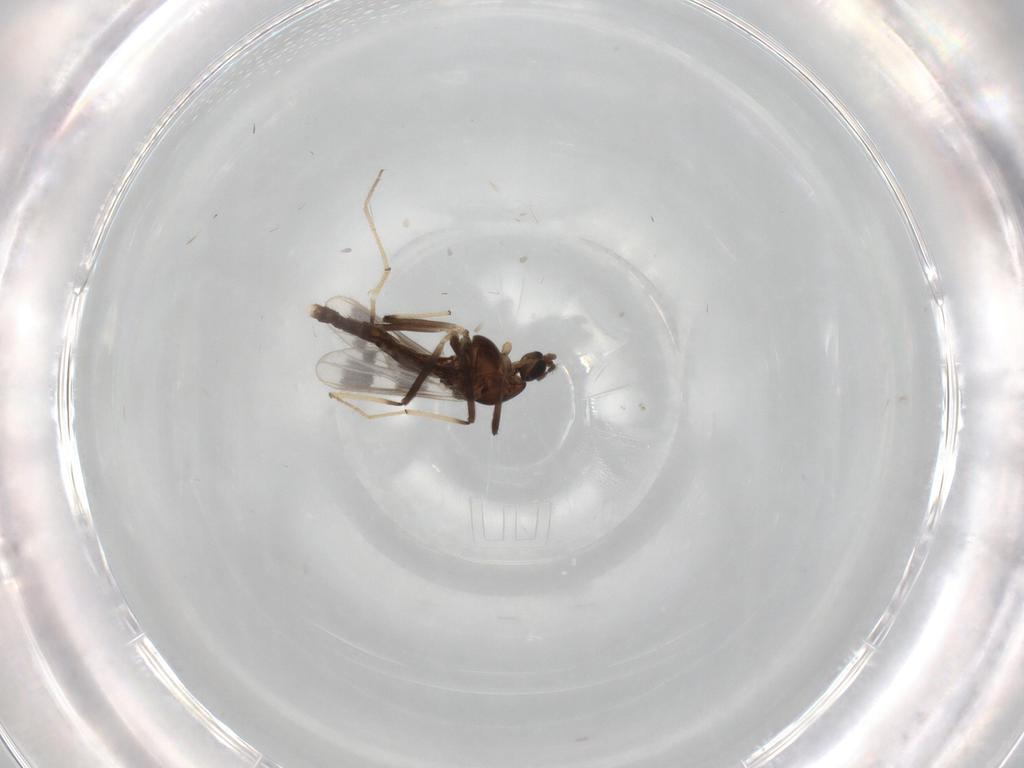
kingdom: Animalia
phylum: Arthropoda
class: Insecta
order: Diptera
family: Chironomidae
